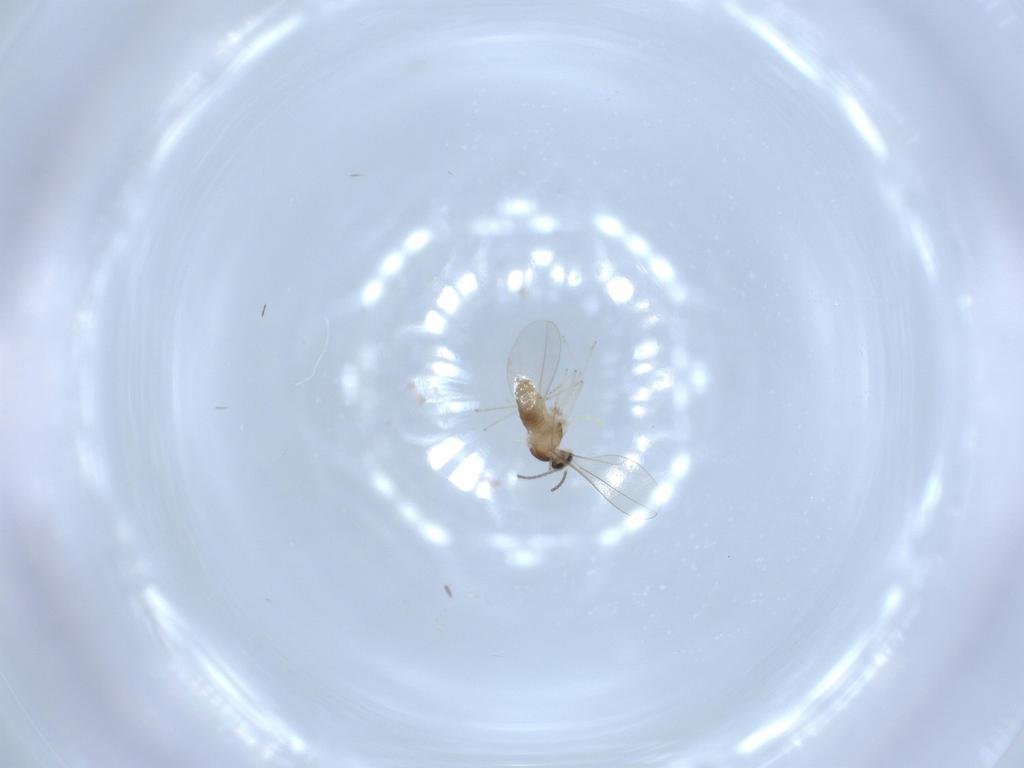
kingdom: Animalia
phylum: Arthropoda
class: Insecta
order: Diptera
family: Cecidomyiidae
